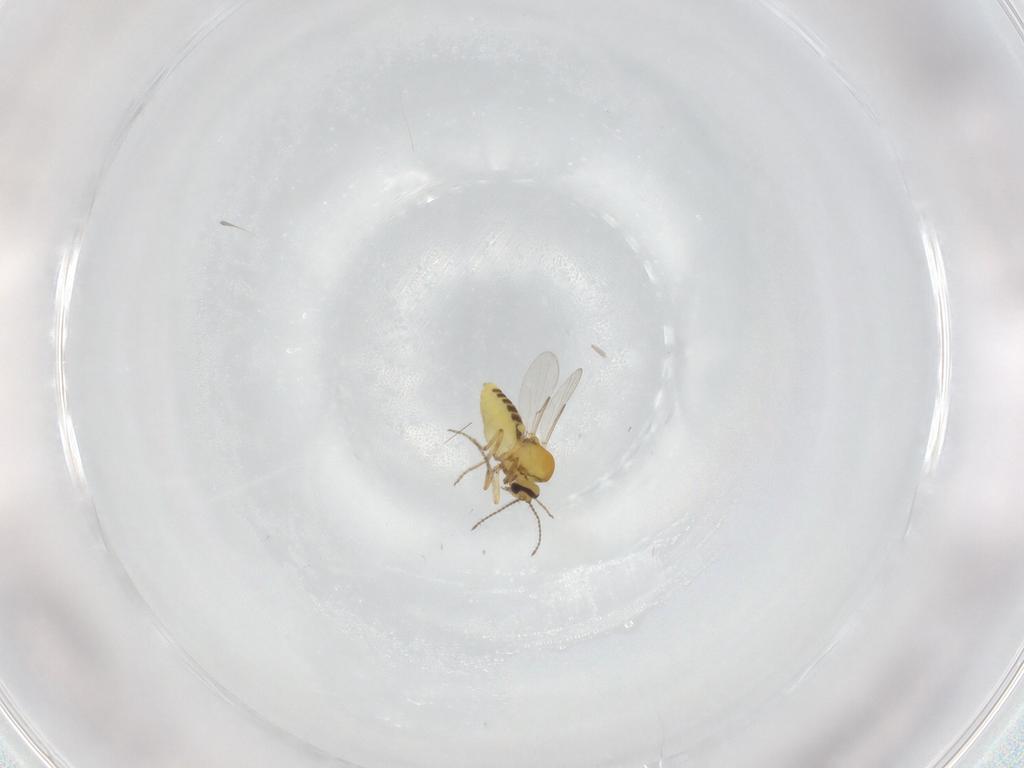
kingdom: Animalia
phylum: Arthropoda
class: Insecta
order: Diptera
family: Ceratopogonidae
